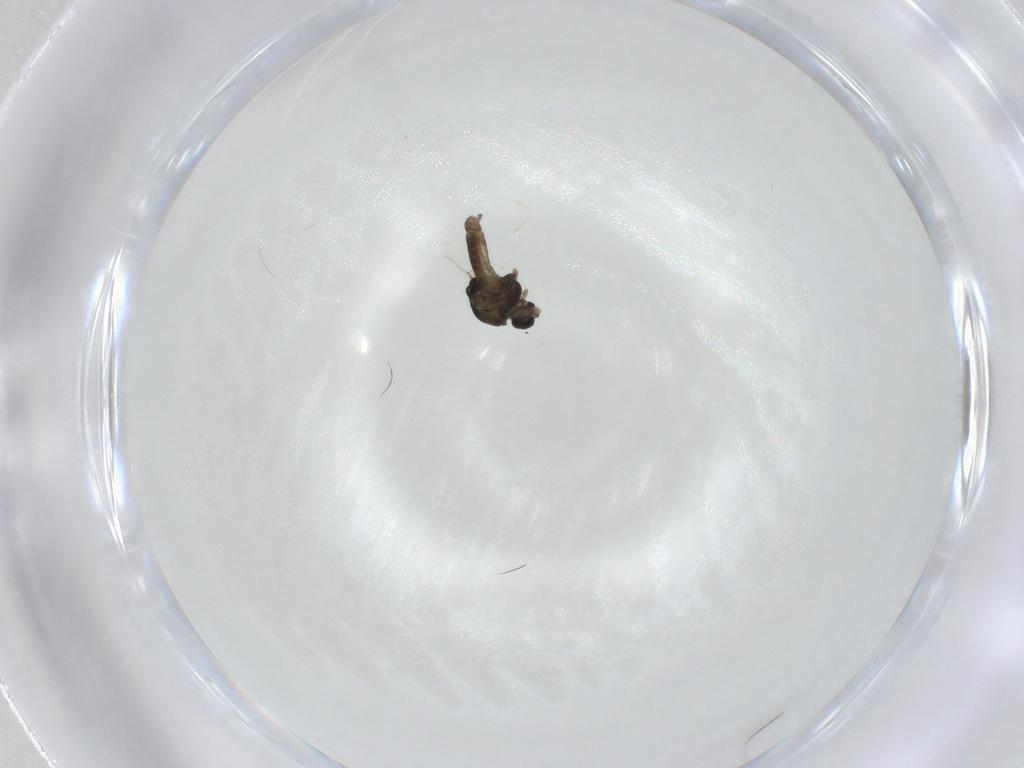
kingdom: Animalia
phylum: Arthropoda
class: Insecta
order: Diptera
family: Chironomidae
